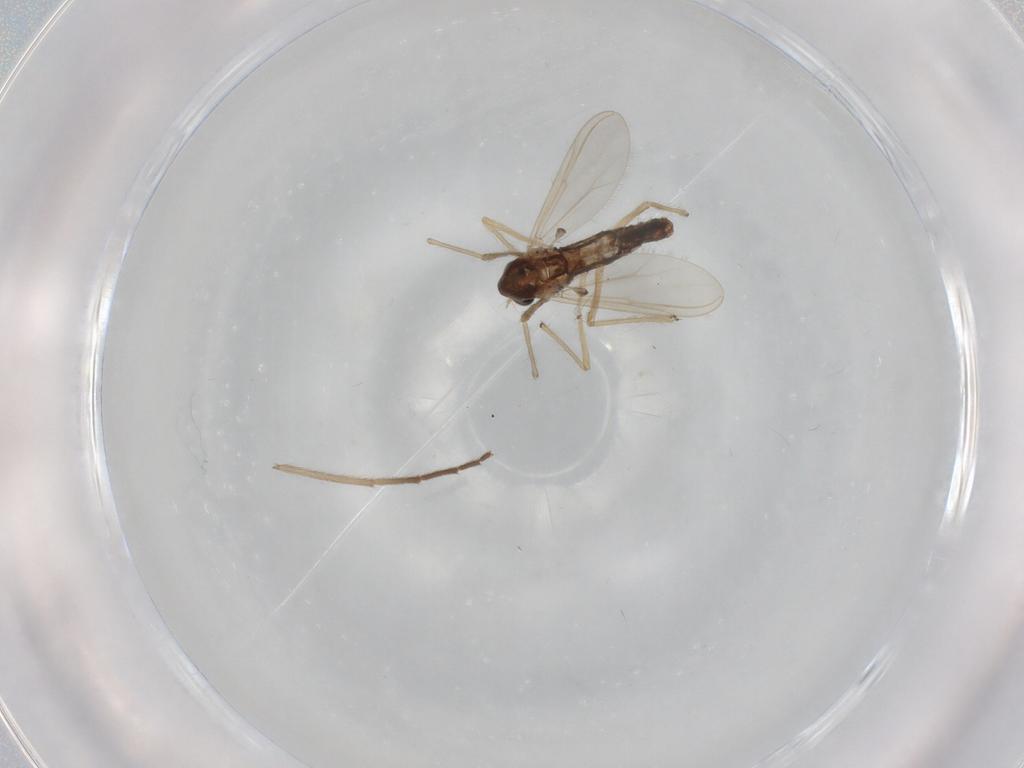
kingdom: Animalia
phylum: Arthropoda
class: Insecta
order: Diptera
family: Chironomidae
